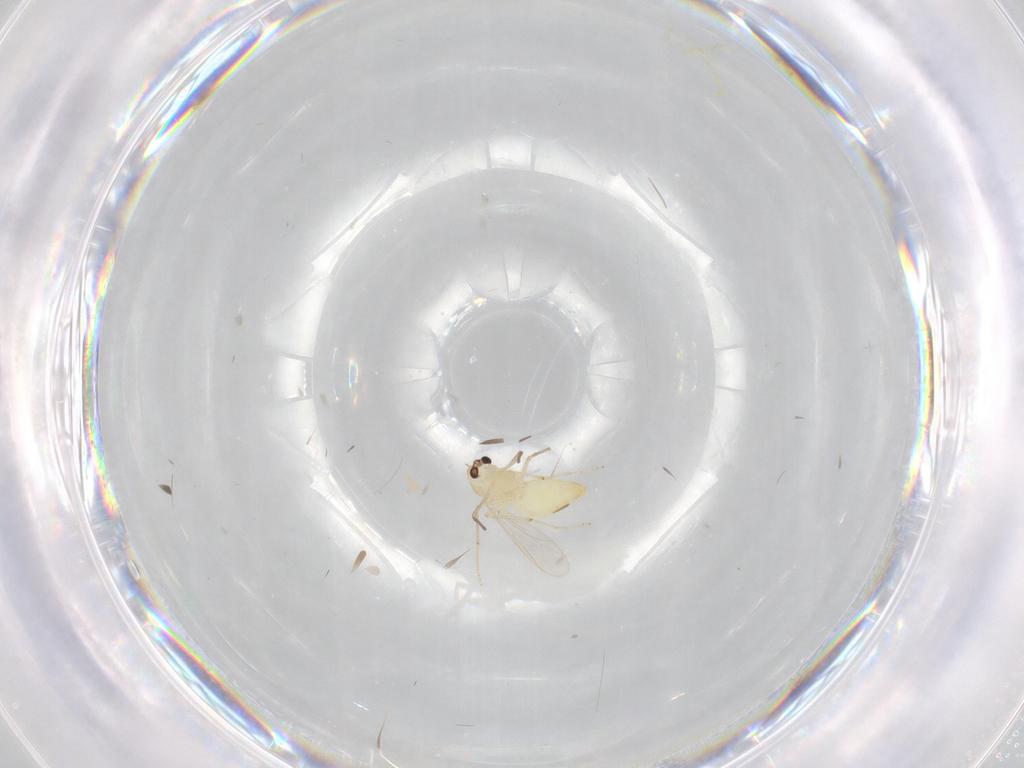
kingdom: Animalia
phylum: Arthropoda
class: Insecta
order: Diptera
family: Chironomidae
